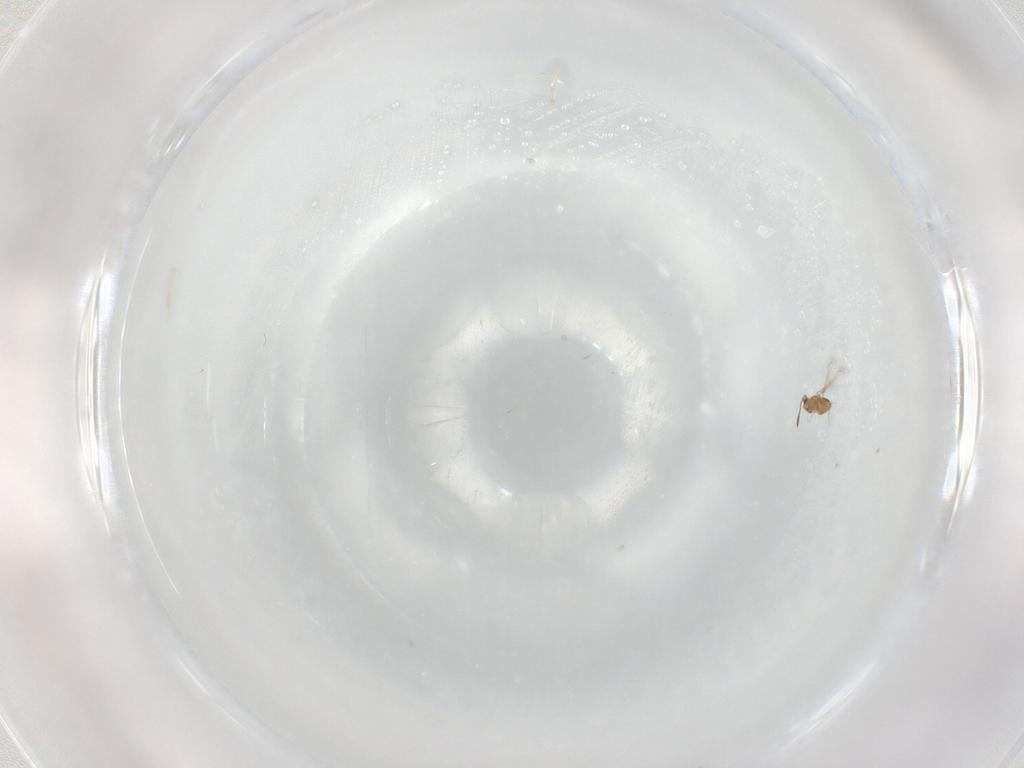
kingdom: Animalia
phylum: Arthropoda
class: Insecta
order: Hymenoptera
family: Mymaridae
